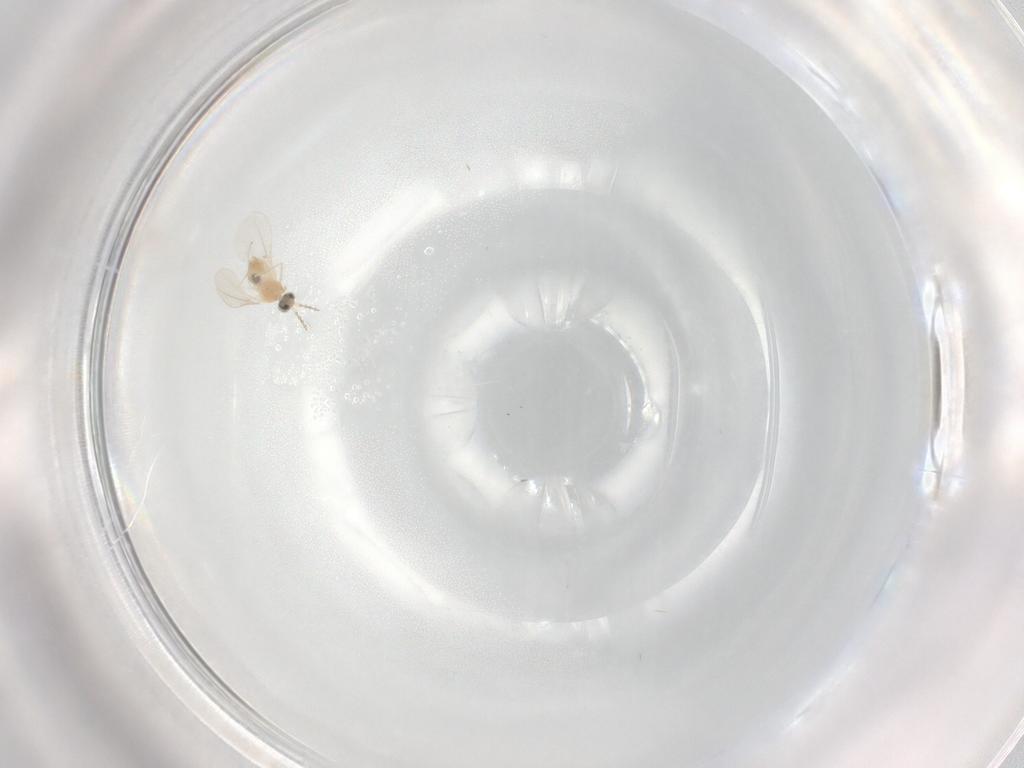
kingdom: Animalia
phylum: Arthropoda
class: Insecta
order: Diptera
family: Cecidomyiidae
